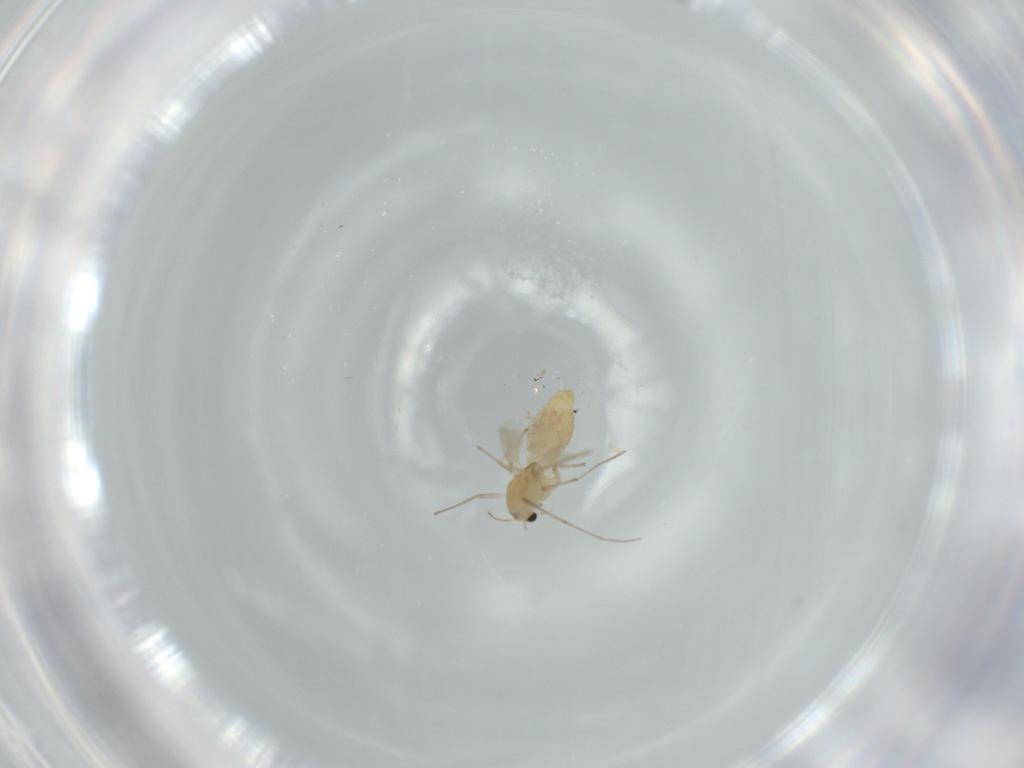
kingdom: Animalia
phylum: Arthropoda
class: Insecta
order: Diptera
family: Chironomidae
